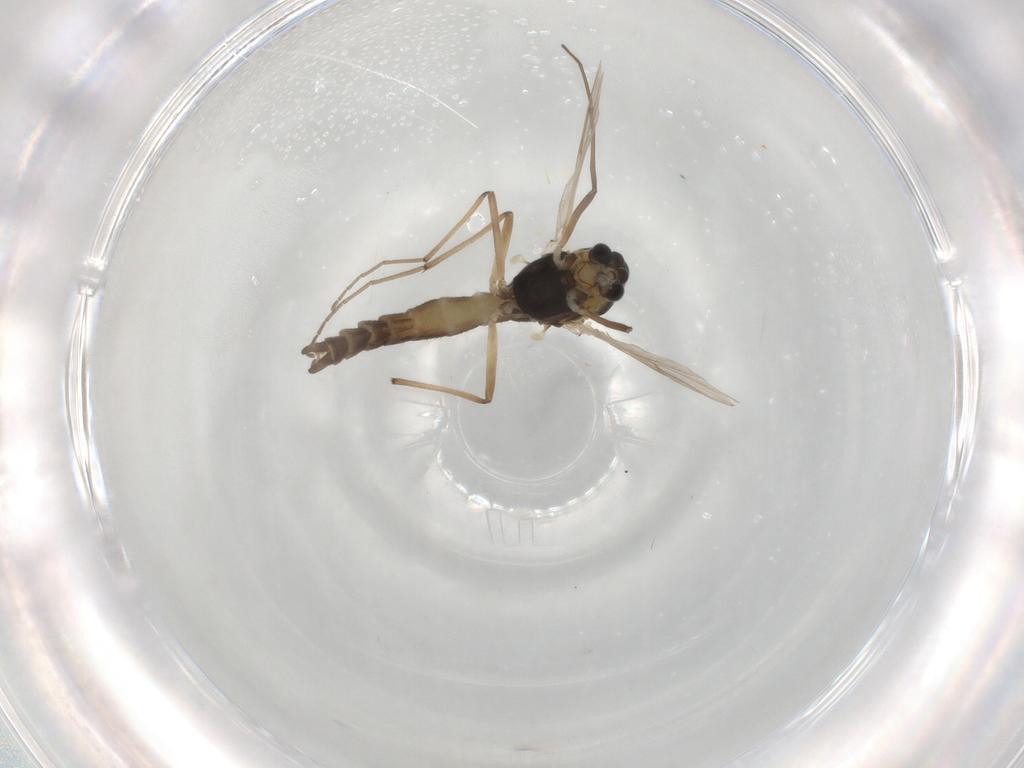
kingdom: Animalia
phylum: Arthropoda
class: Insecta
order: Diptera
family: Agromyzidae
